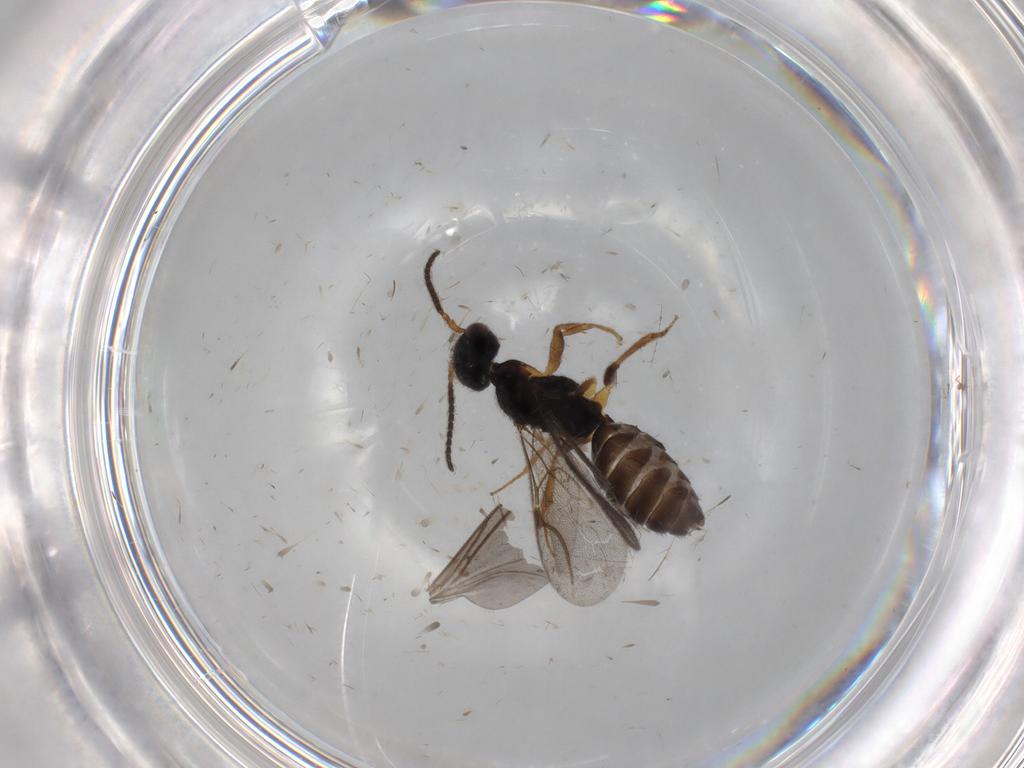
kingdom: Animalia
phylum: Arthropoda
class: Insecta
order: Hymenoptera
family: Bethylidae
